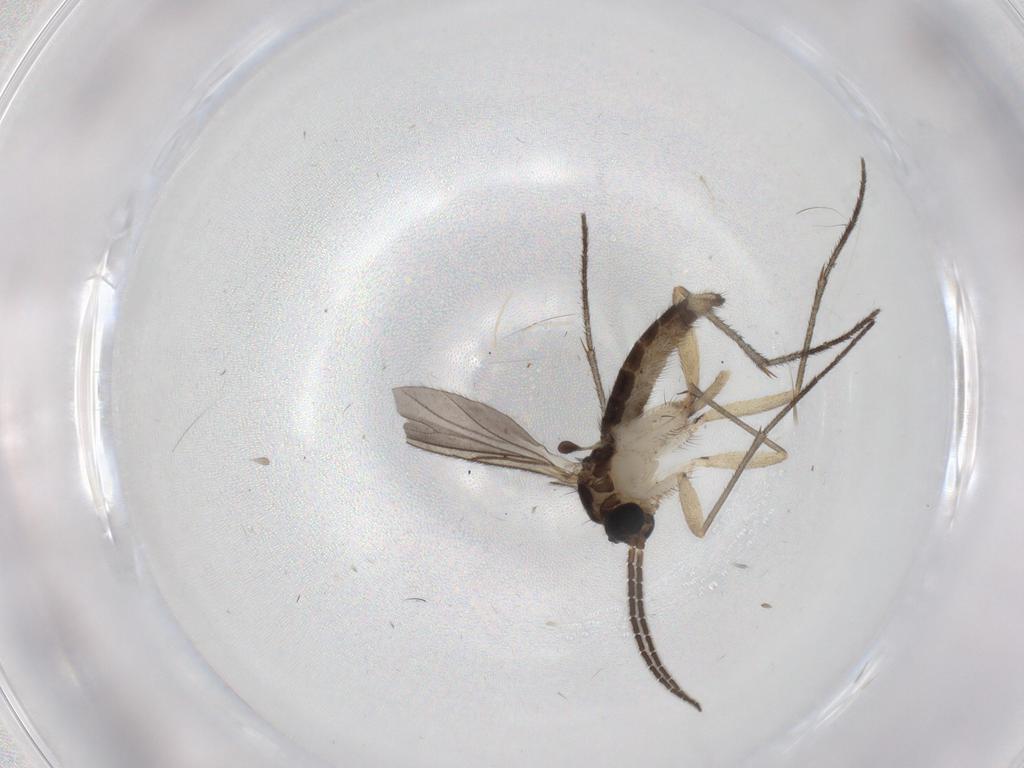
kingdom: Animalia
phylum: Arthropoda
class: Insecta
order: Diptera
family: Sciaridae
